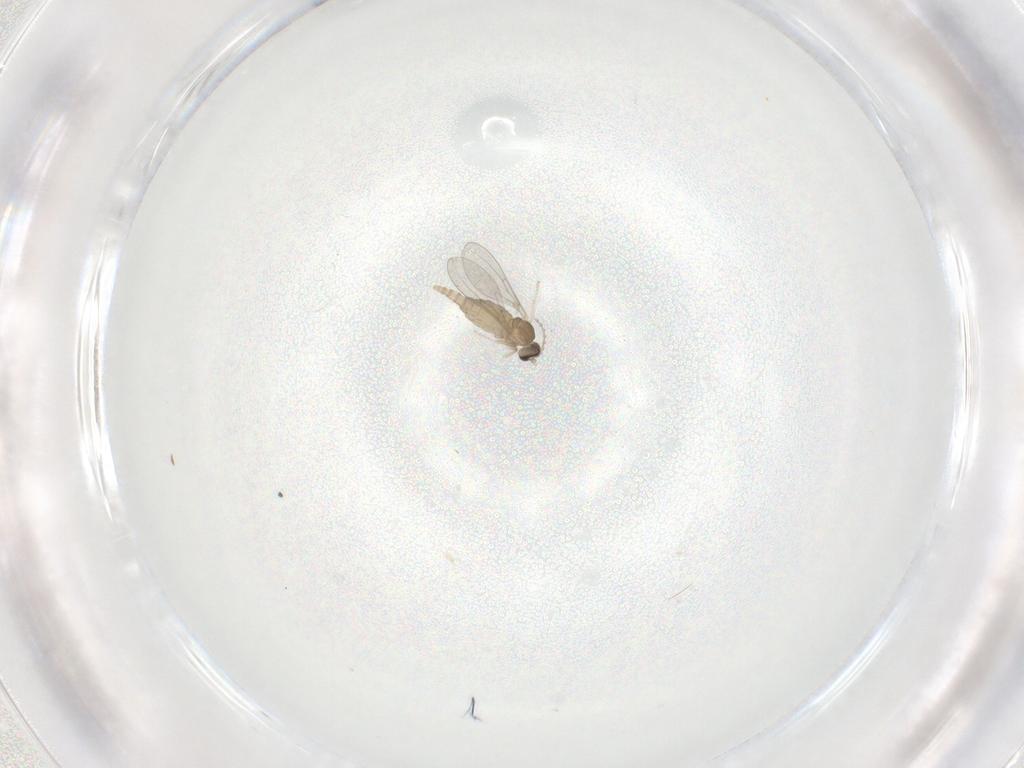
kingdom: Animalia
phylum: Arthropoda
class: Insecta
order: Diptera
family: Cecidomyiidae
